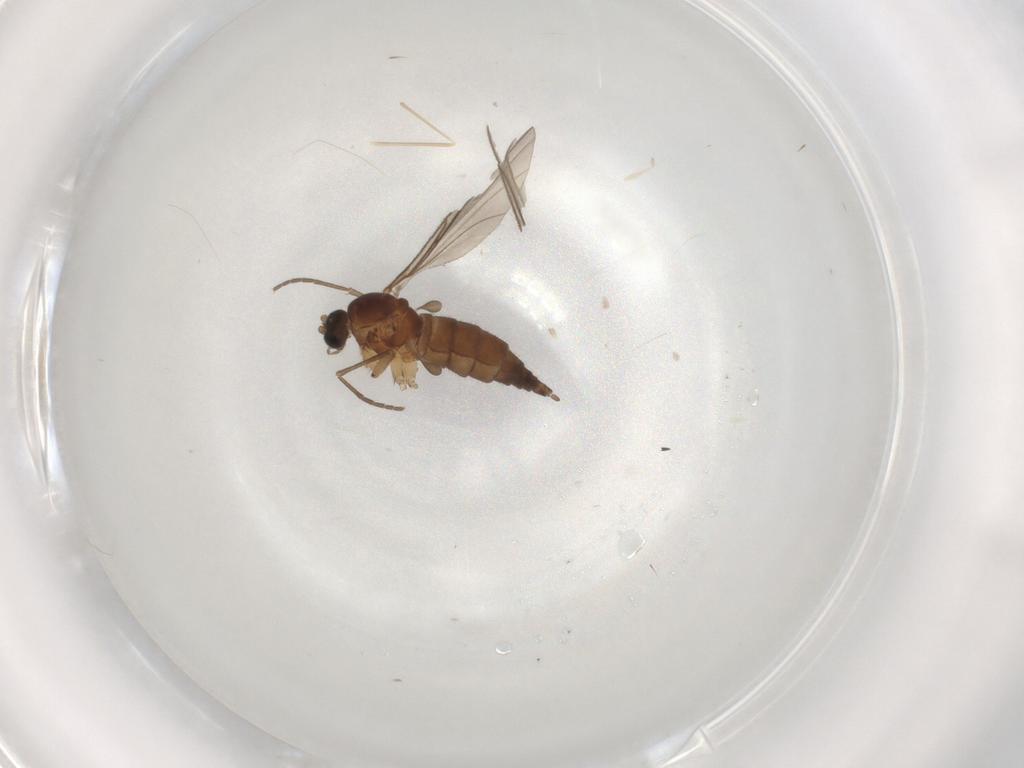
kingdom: Animalia
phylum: Arthropoda
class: Insecta
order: Diptera
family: Sciaridae
